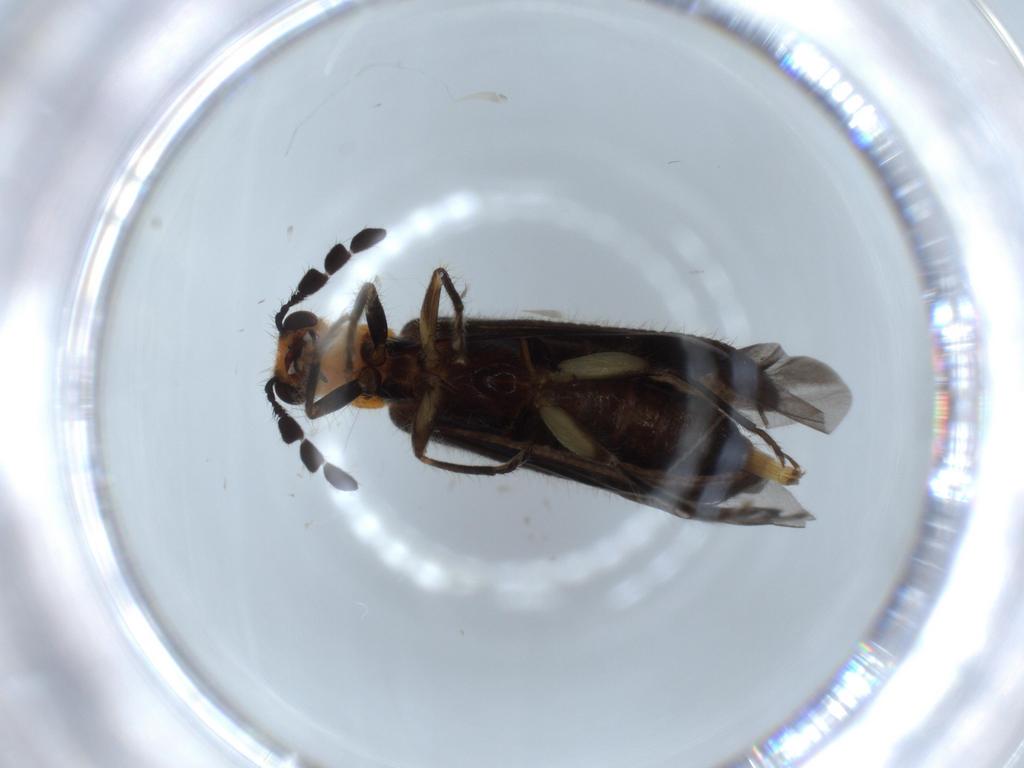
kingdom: Animalia
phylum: Arthropoda
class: Insecta
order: Coleoptera
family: Cleridae
